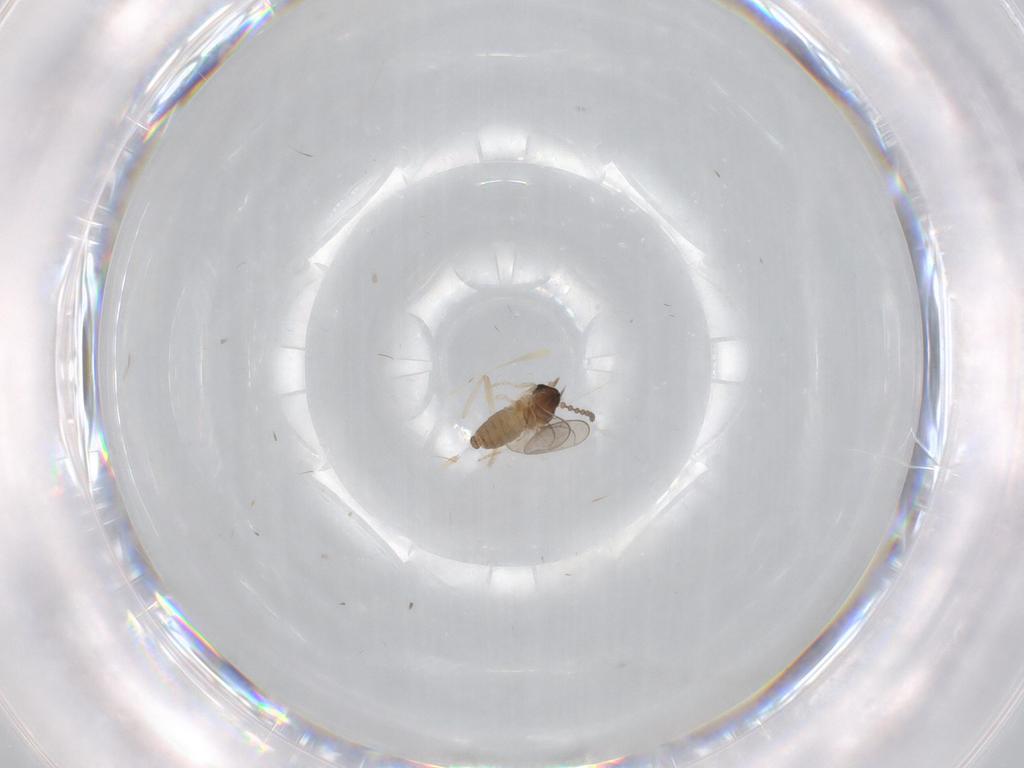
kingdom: Animalia
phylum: Arthropoda
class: Insecta
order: Diptera
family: Cecidomyiidae
